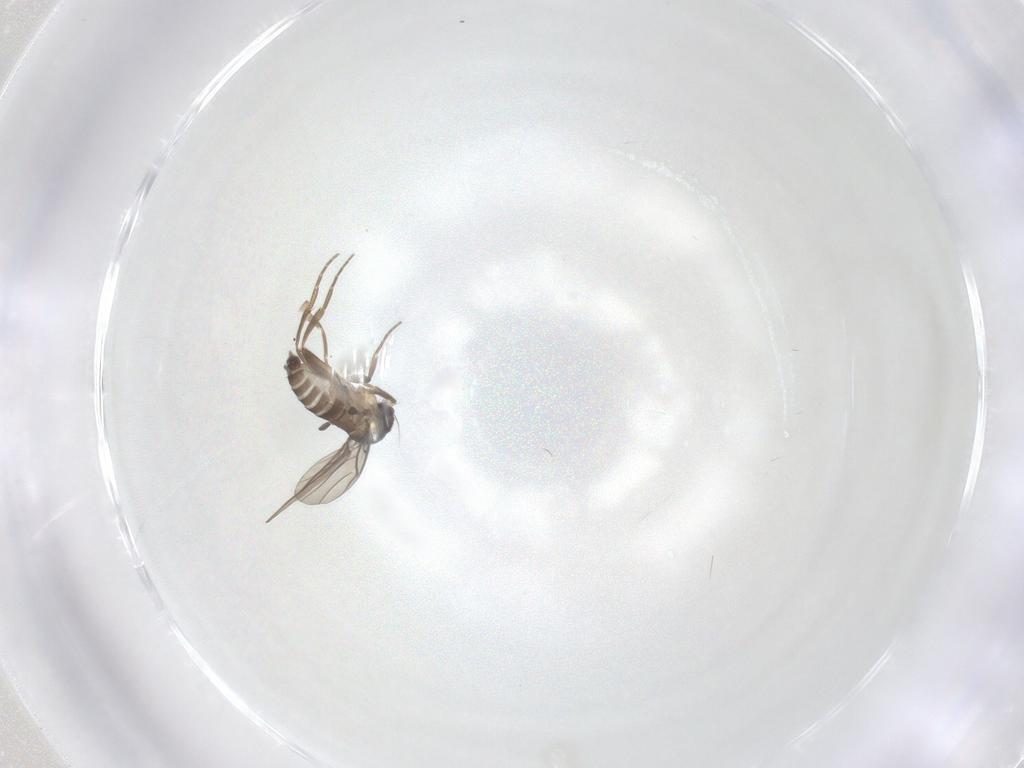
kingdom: Animalia
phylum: Arthropoda
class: Insecta
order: Diptera
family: Phoridae
